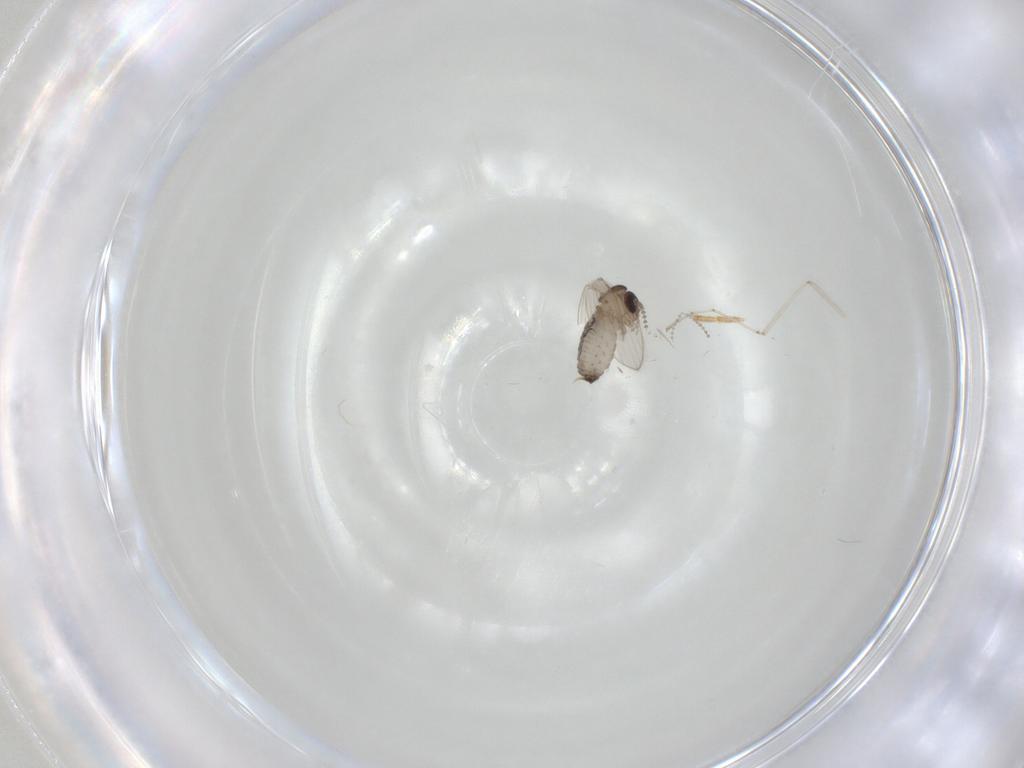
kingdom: Animalia
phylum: Arthropoda
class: Insecta
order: Diptera
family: Psychodidae
